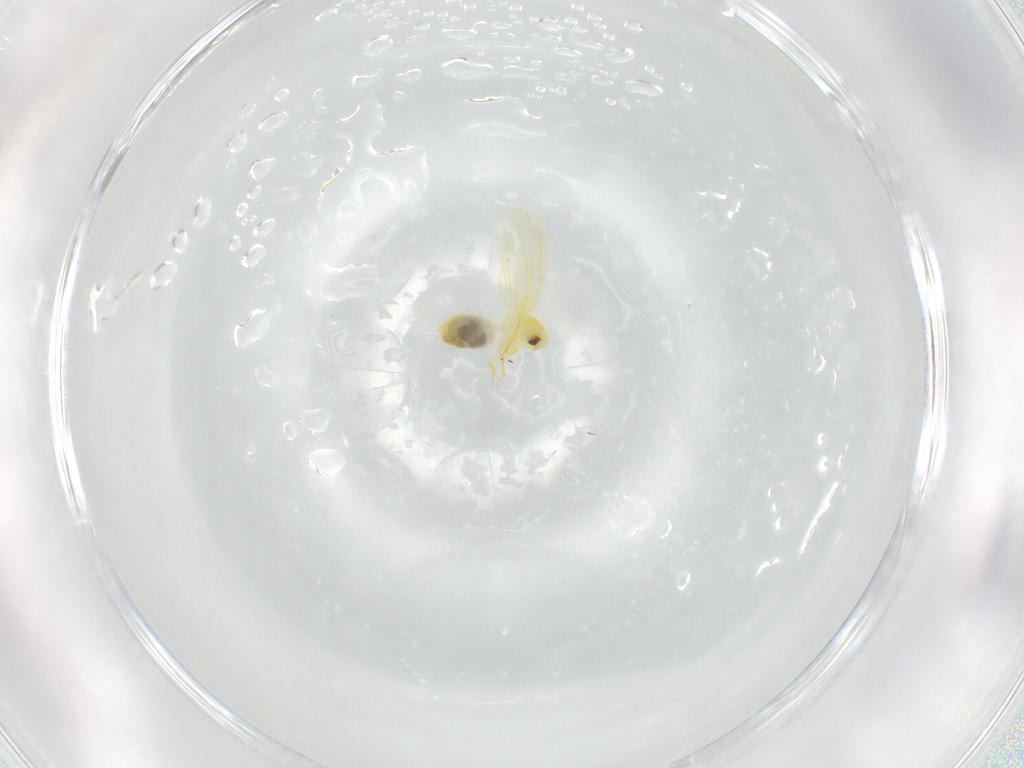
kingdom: Animalia
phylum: Arthropoda
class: Insecta
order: Hemiptera
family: Aleyrodidae
